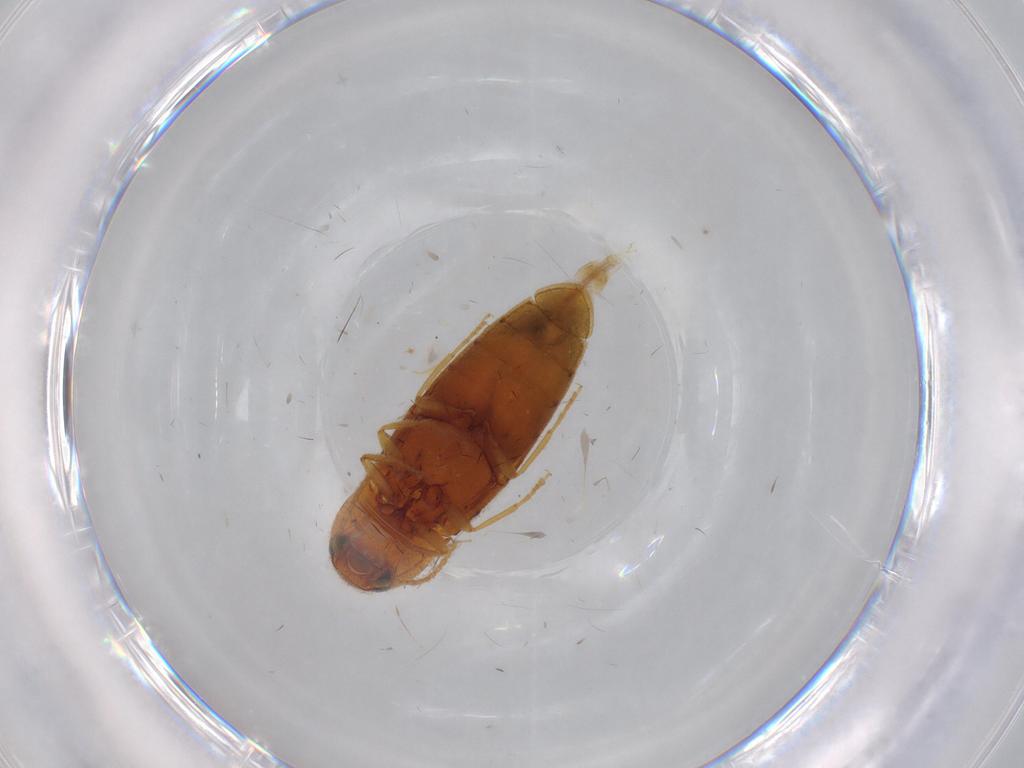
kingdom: Animalia
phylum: Arthropoda
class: Insecta
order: Coleoptera
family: Elateridae
